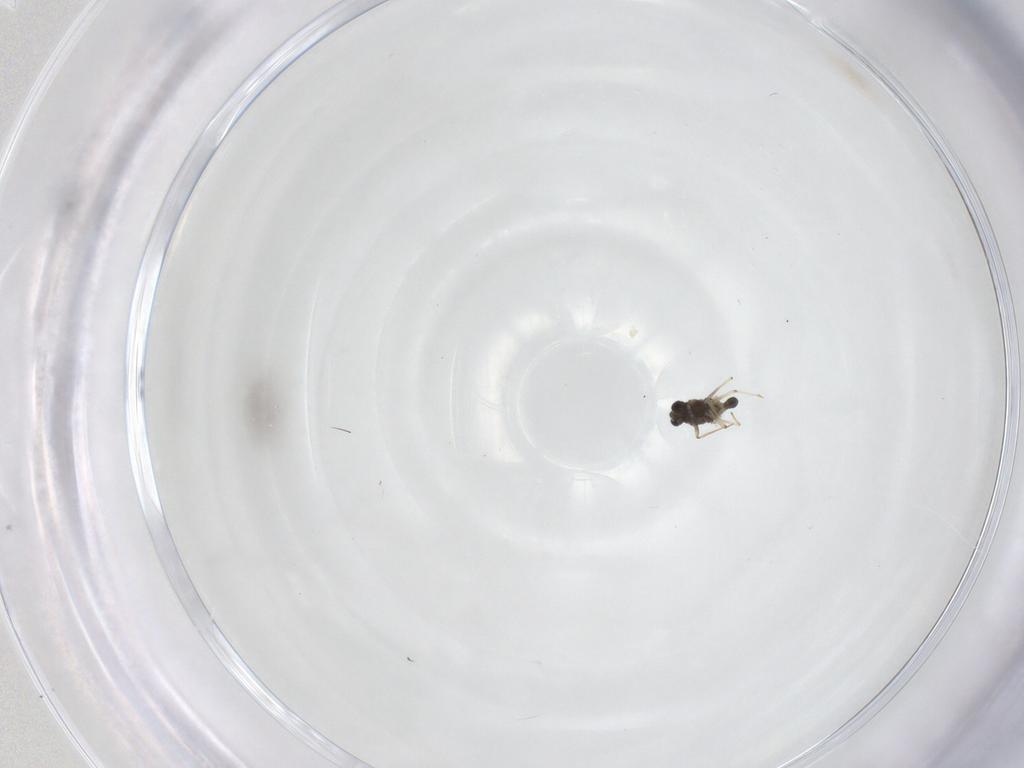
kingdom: Animalia
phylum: Arthropoda
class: Insecta
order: Diptera
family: Ceratopogonidae
